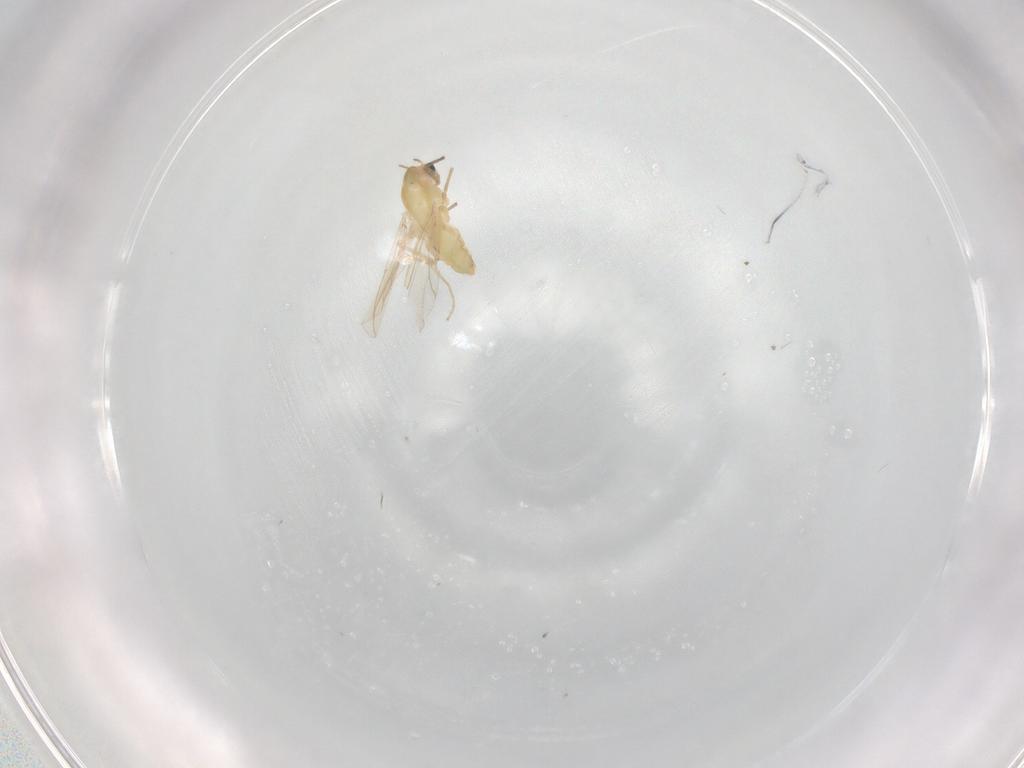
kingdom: Animalia
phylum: Arthropoda
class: Insecta
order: Diptera
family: Chironomidae
